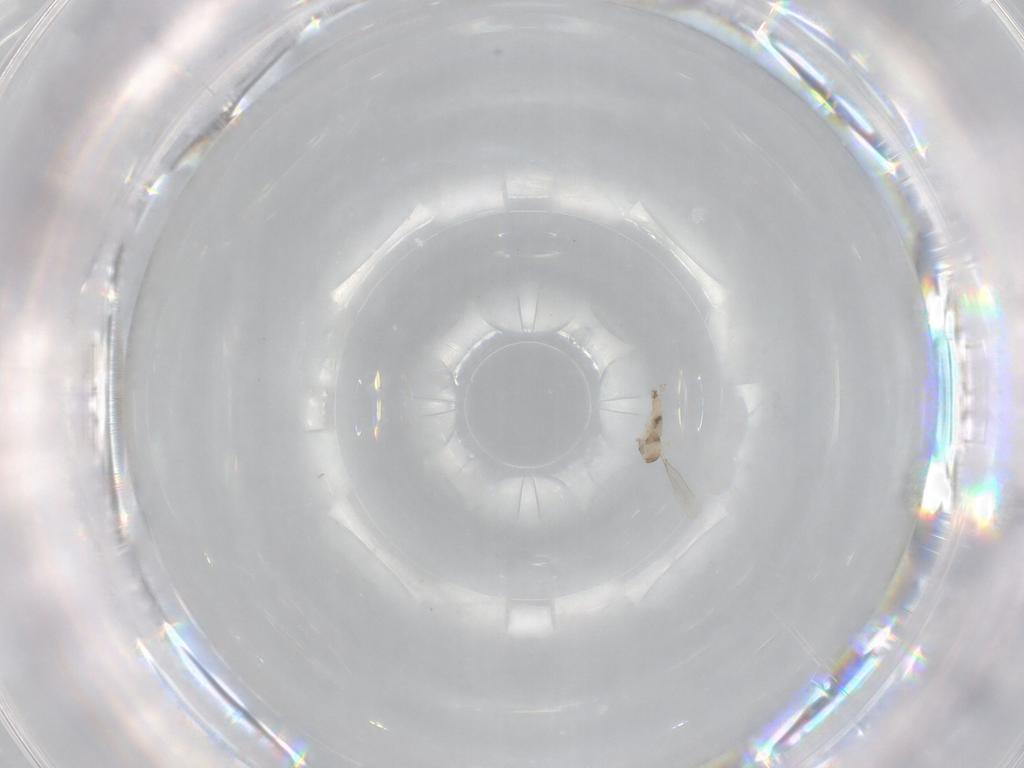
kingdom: Animalia
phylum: Arthropoda
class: Insecta
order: Diptera
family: Cecidomyiidae
